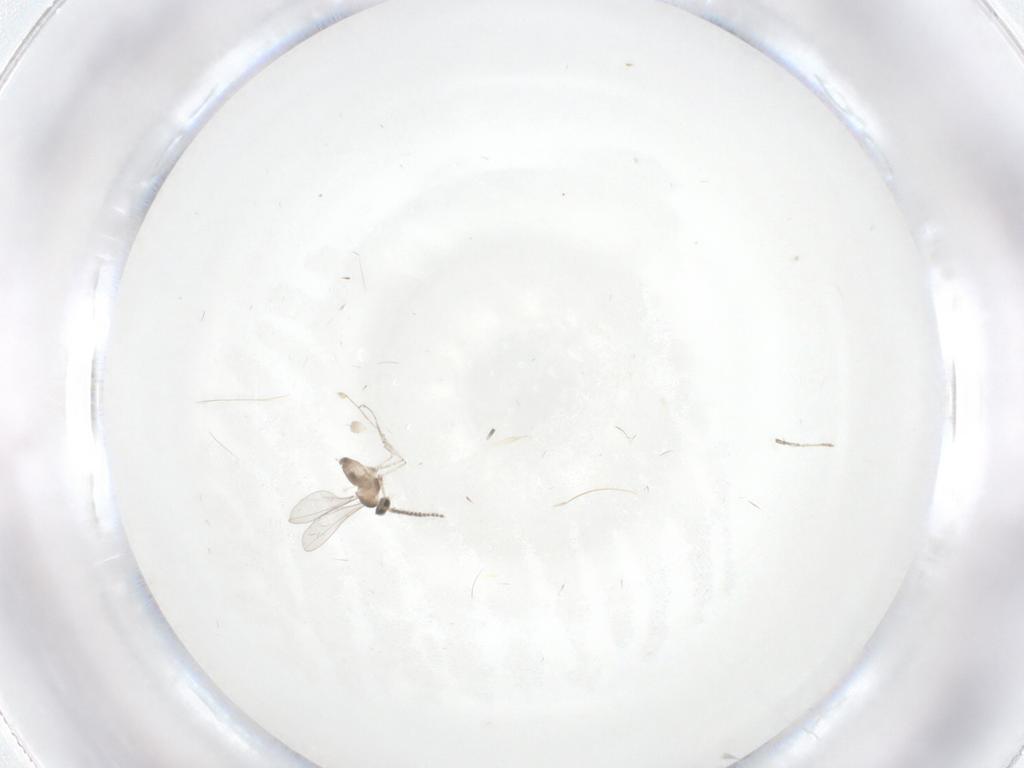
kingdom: Animalia
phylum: Arthropoda
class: Insecta
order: Diptera
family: Cecidomyiidae
